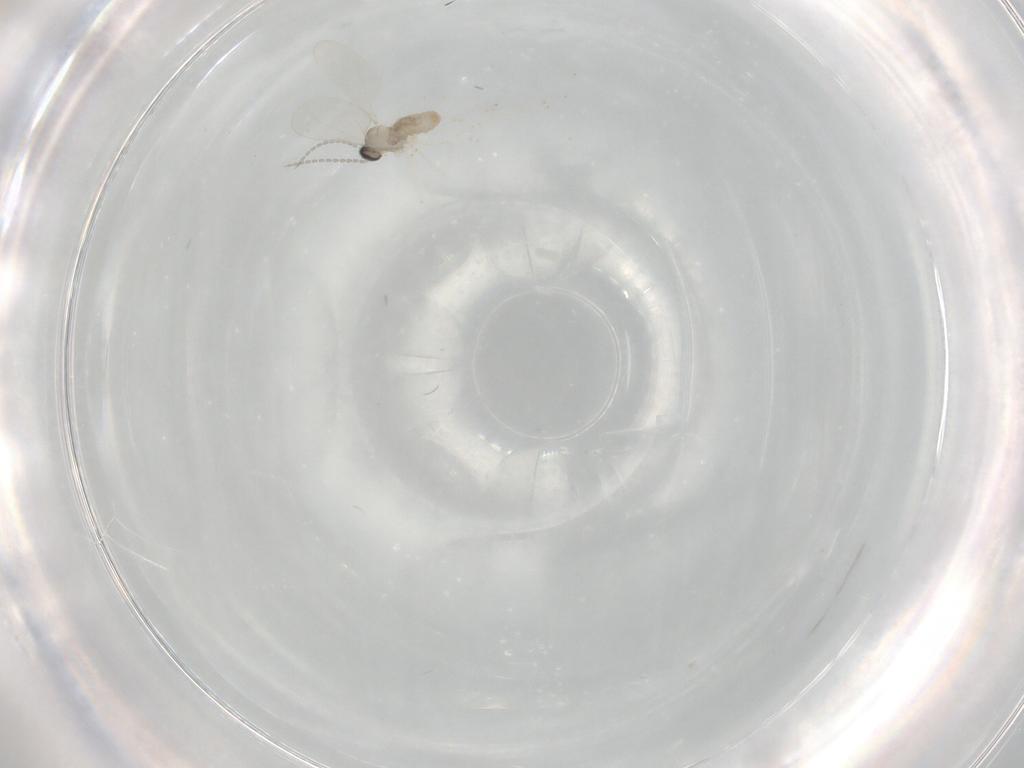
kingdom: Animalia
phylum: Arthropoda
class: Insecta
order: Diptera
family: Cecidomyiidae
